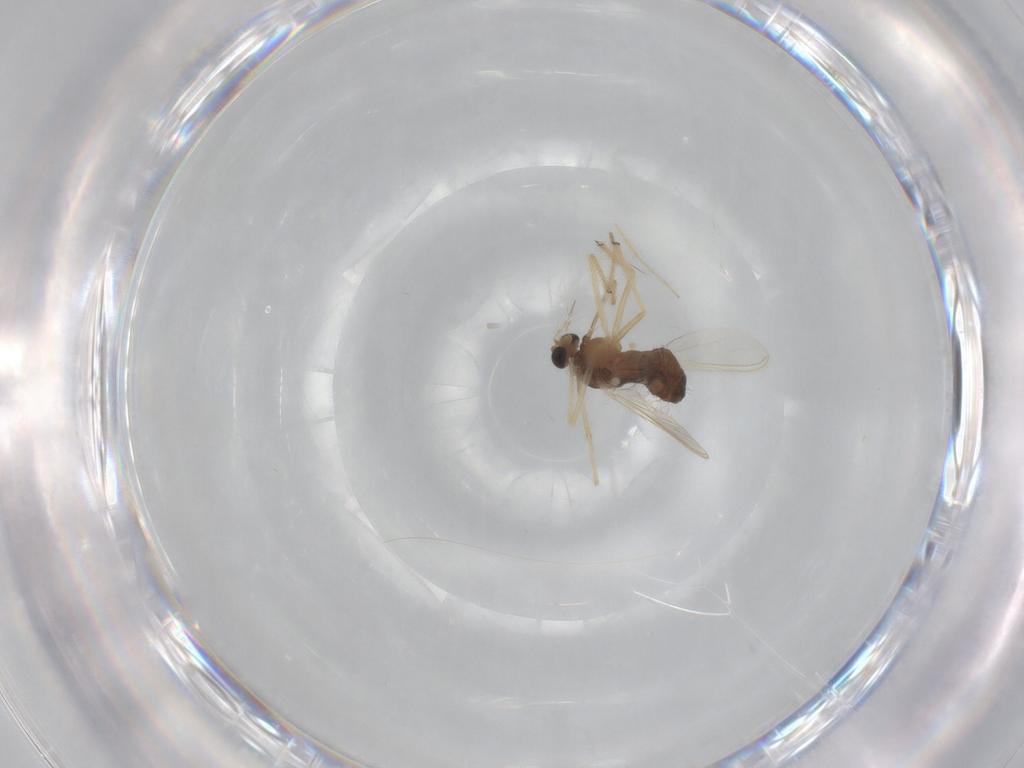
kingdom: Animalia
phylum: Arthropoda
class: Insecta
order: Diptera
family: Chironomidae
